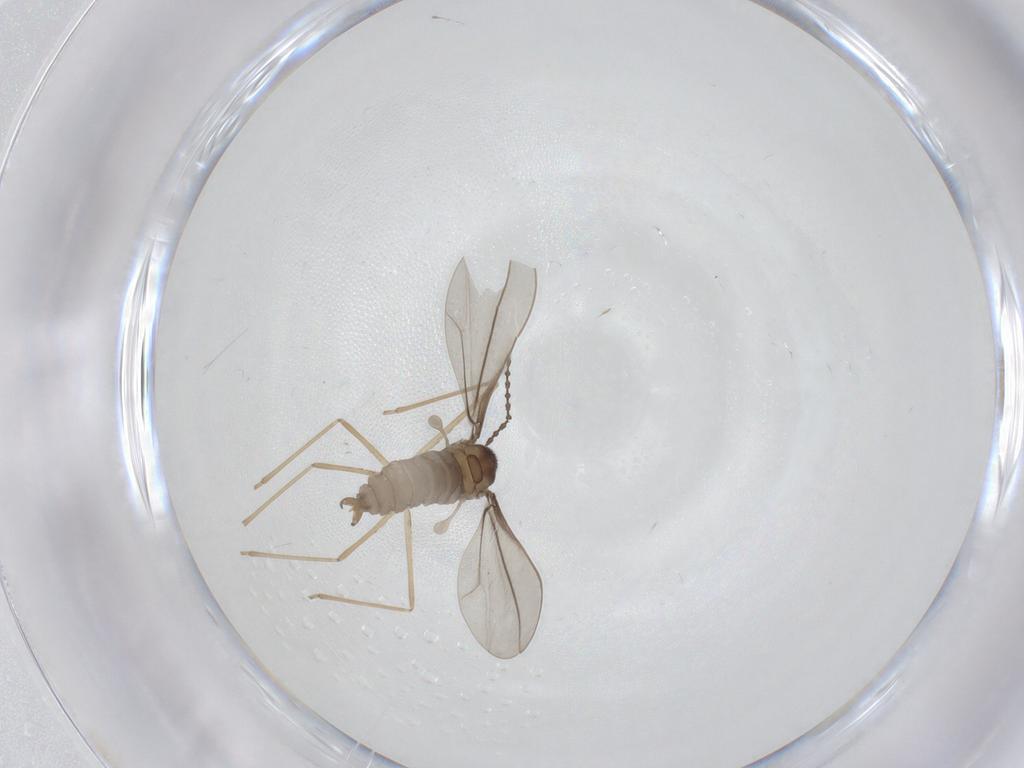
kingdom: Animalia
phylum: Arthropoda
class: Insecta
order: Diptera
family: Cecidomyiidae
